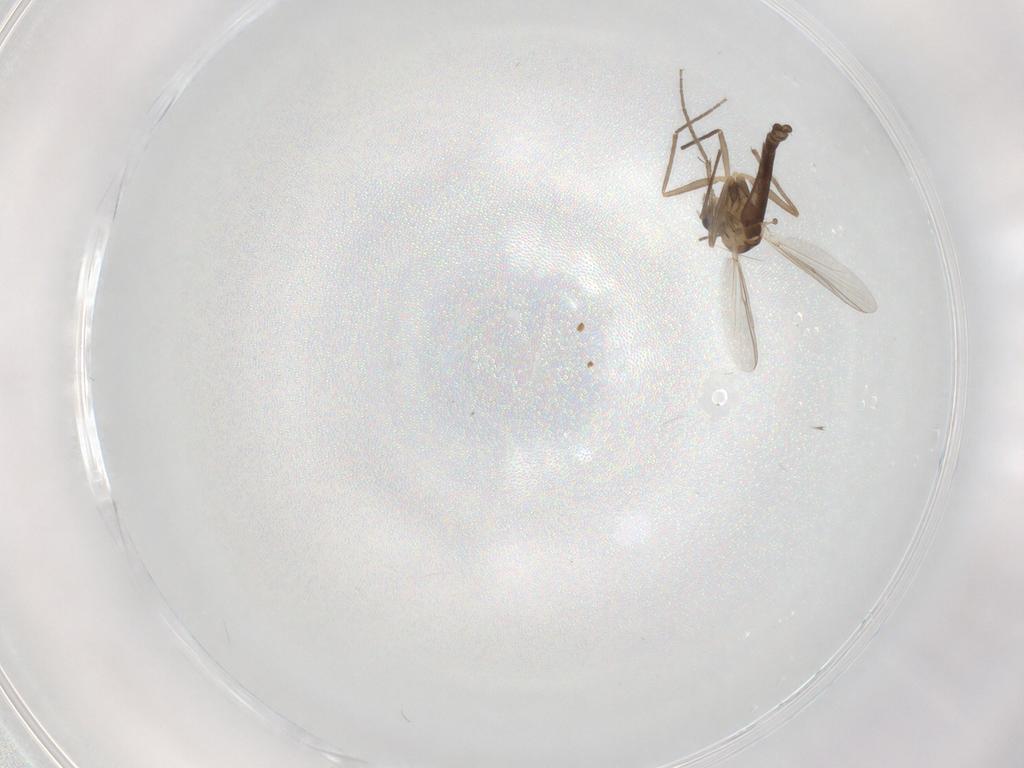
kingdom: Animalia
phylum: Arthropoda
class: Insecta
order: Diptera
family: Chironomidae
